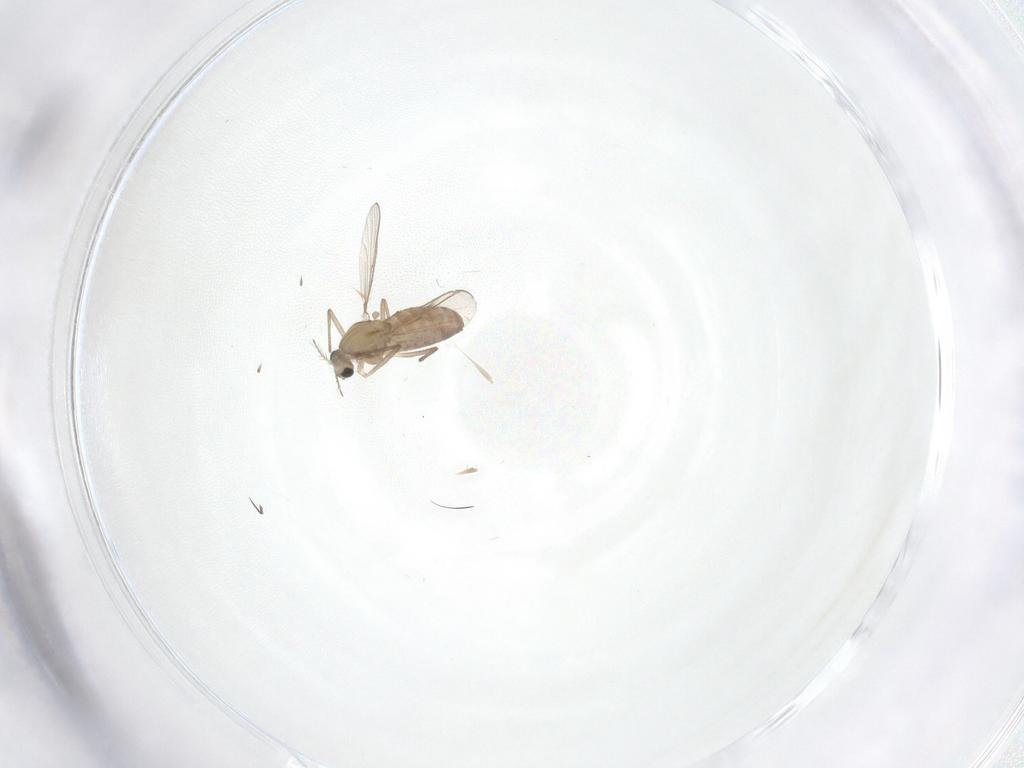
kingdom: Animalia
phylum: Arthropoda
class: Insecta
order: Diptera
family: Chironomidae
